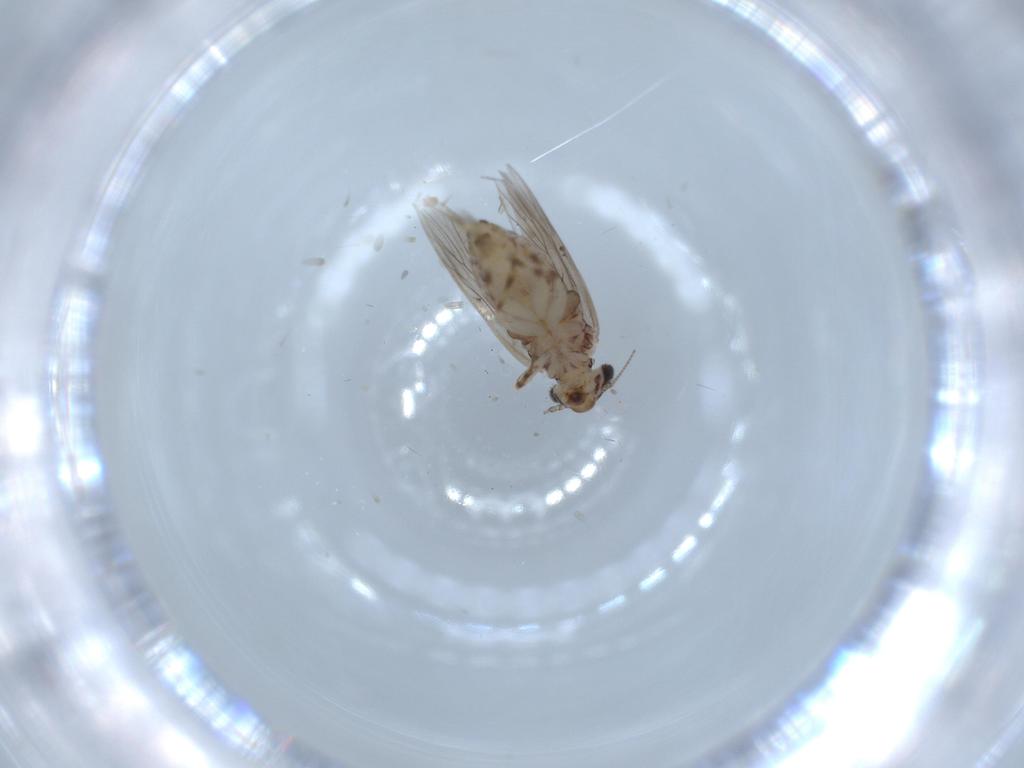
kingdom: Animalia
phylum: Arthropoda
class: Insecta
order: Psocodea
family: Lepidopsocidae
